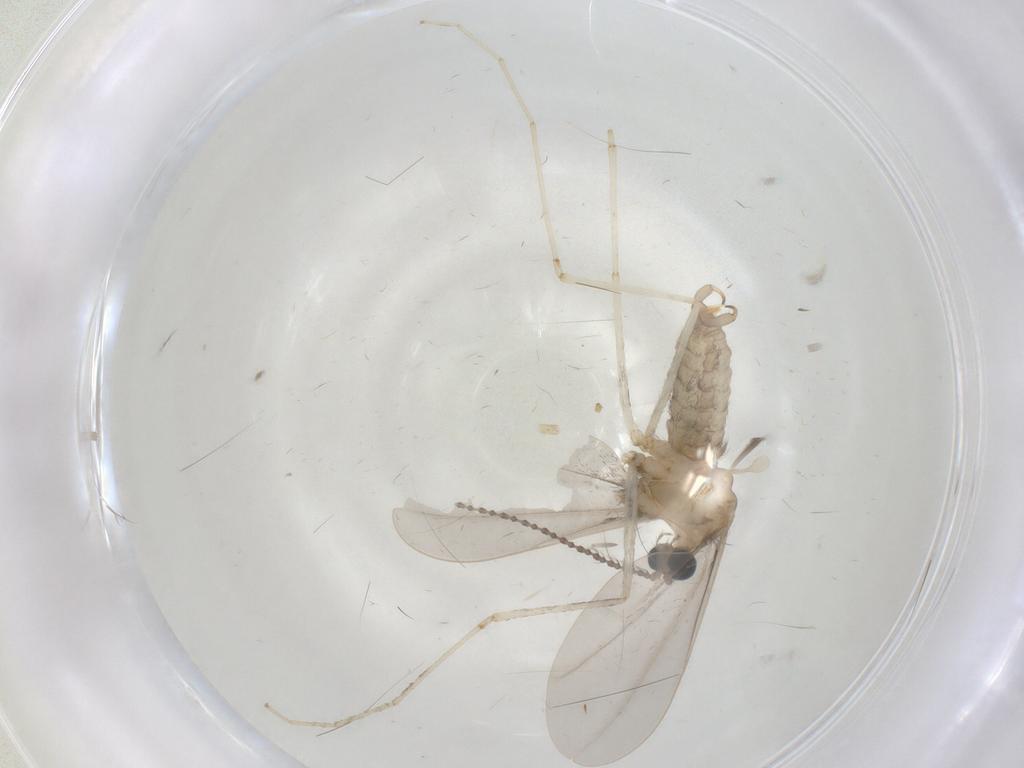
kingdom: Animalia
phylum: Arthropoda
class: Insecta
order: Diptera
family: Cecidomyiidae
